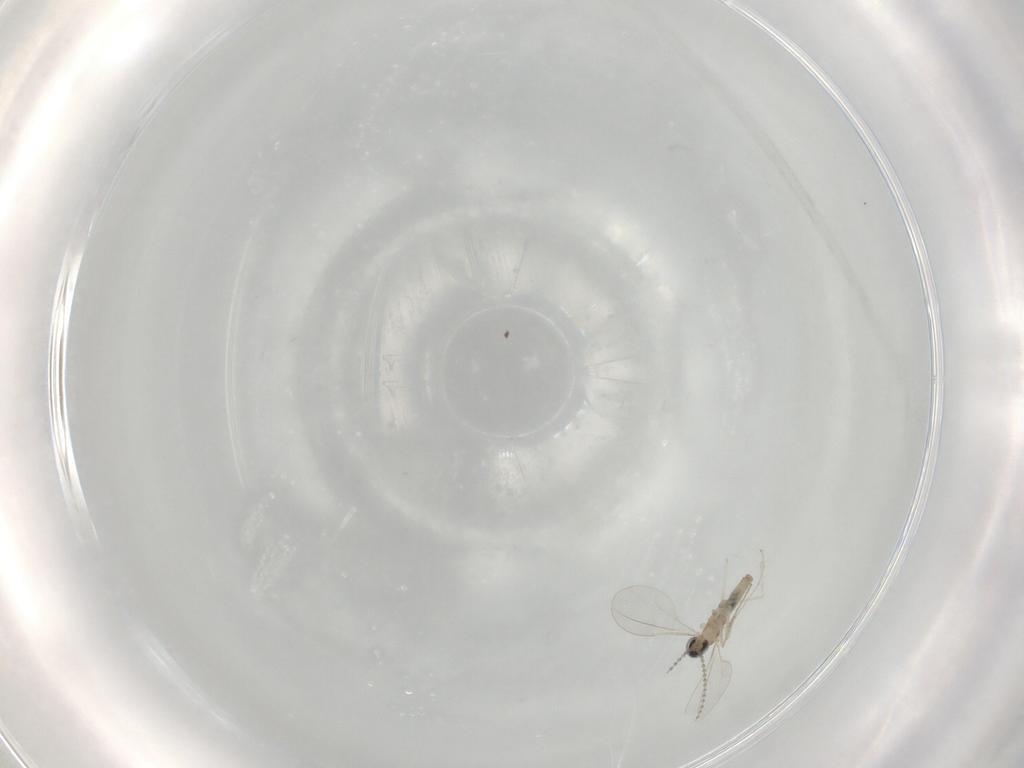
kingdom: Animalia
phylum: Arthropoda
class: Insecta
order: Diptera
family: Cecidomyiidae
